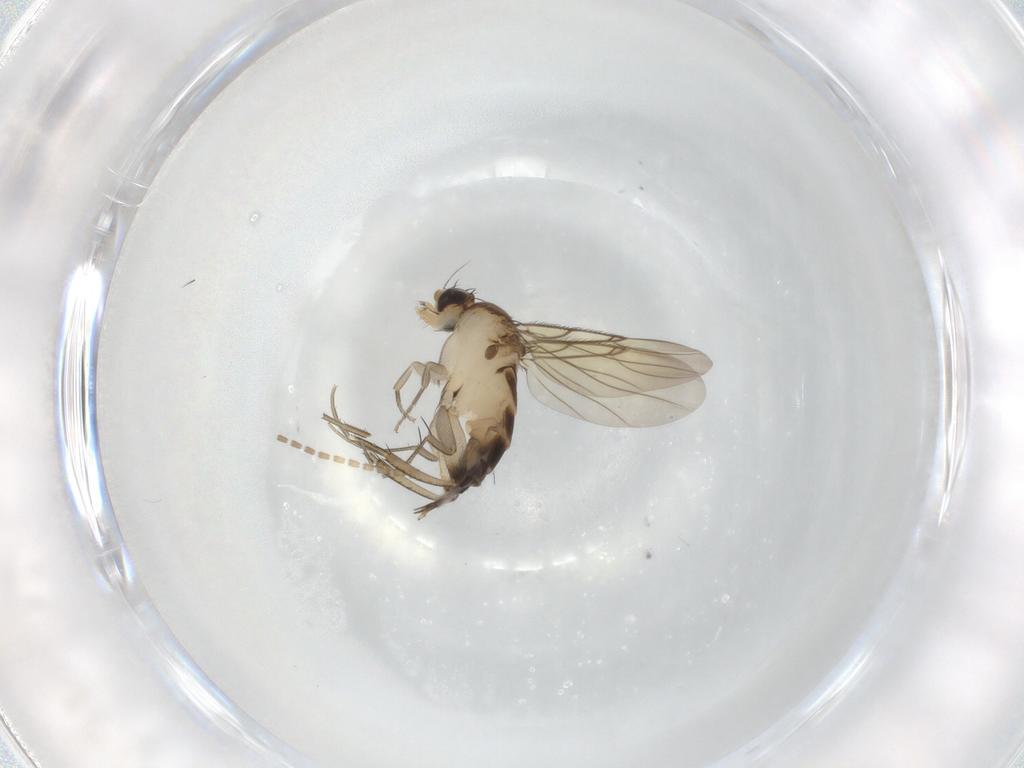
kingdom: Animalia
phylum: Arthropoda
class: Insecta
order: Diptera
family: Phoridae
